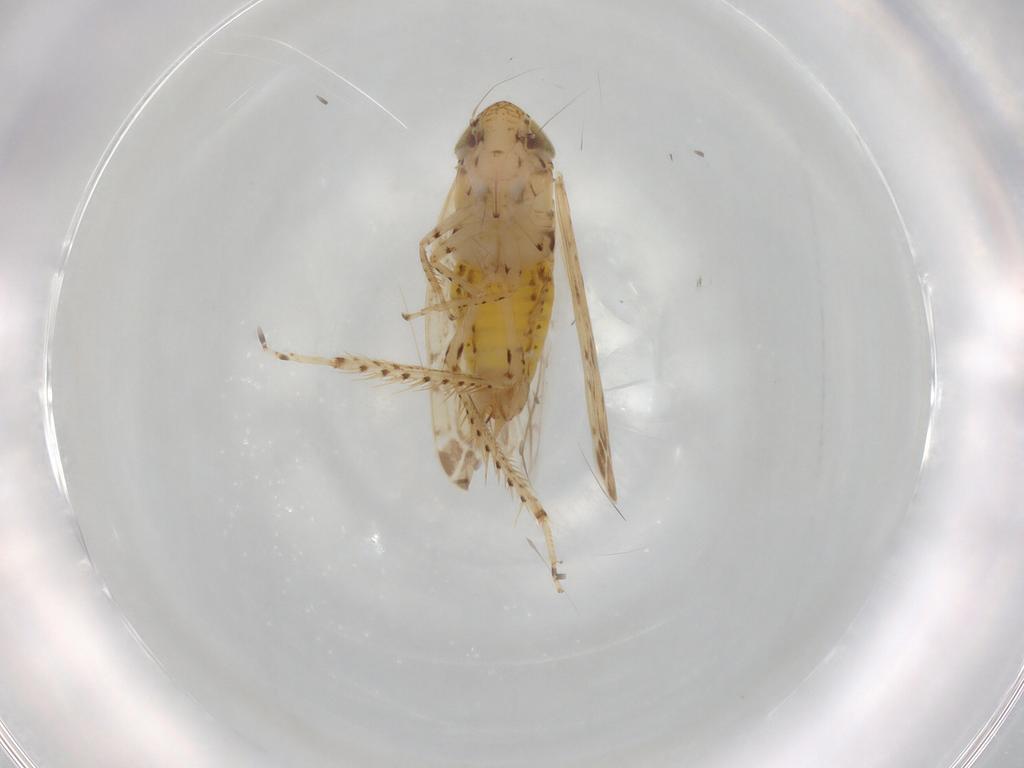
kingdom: Animalia
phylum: Arthropoda
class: Insecta
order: Hemiptera
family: Cicadellidae
